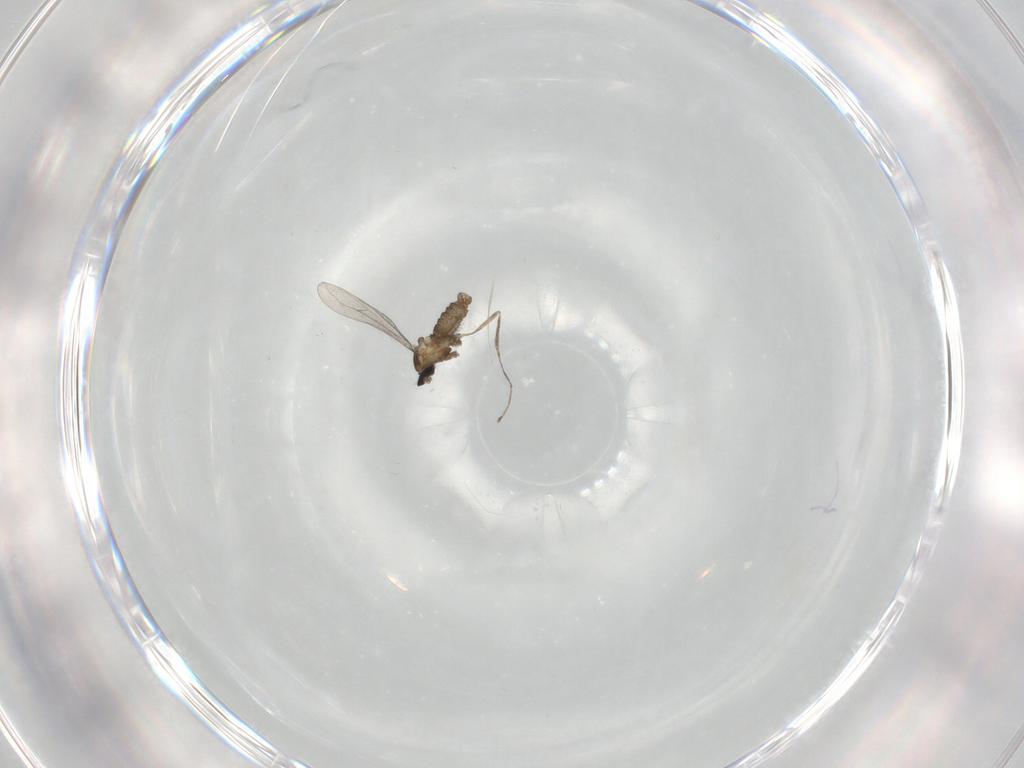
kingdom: Animalia
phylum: Arthropoda
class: Insecta
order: Diptera
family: Cecidomyiidae
